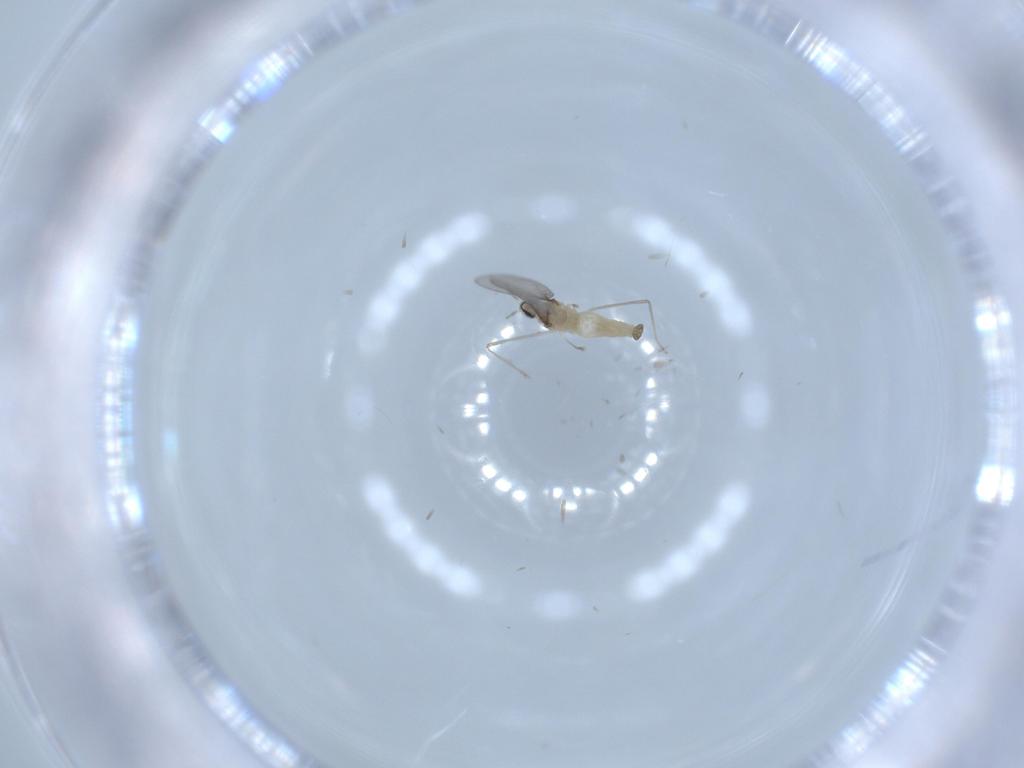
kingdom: Animalia
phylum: Arthropoda
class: Insecta
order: Diptera
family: Cecidomyiidae
